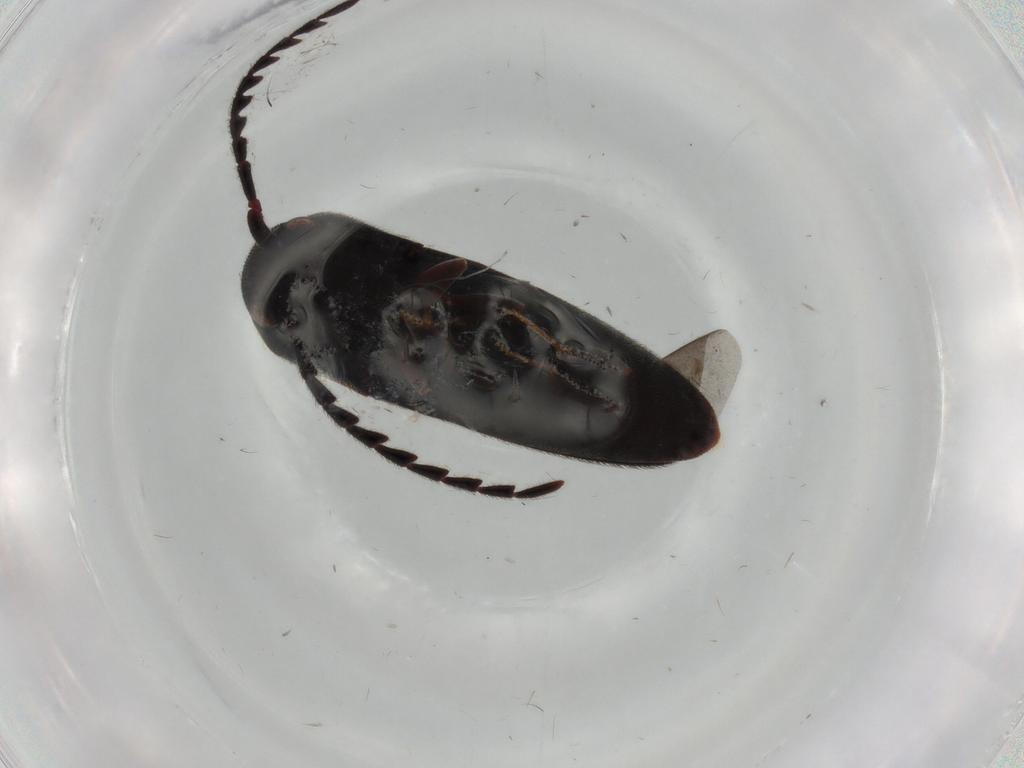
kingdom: Animalia
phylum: Arthropoda
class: Insecta
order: Coleoptera
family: Eucnemidae
